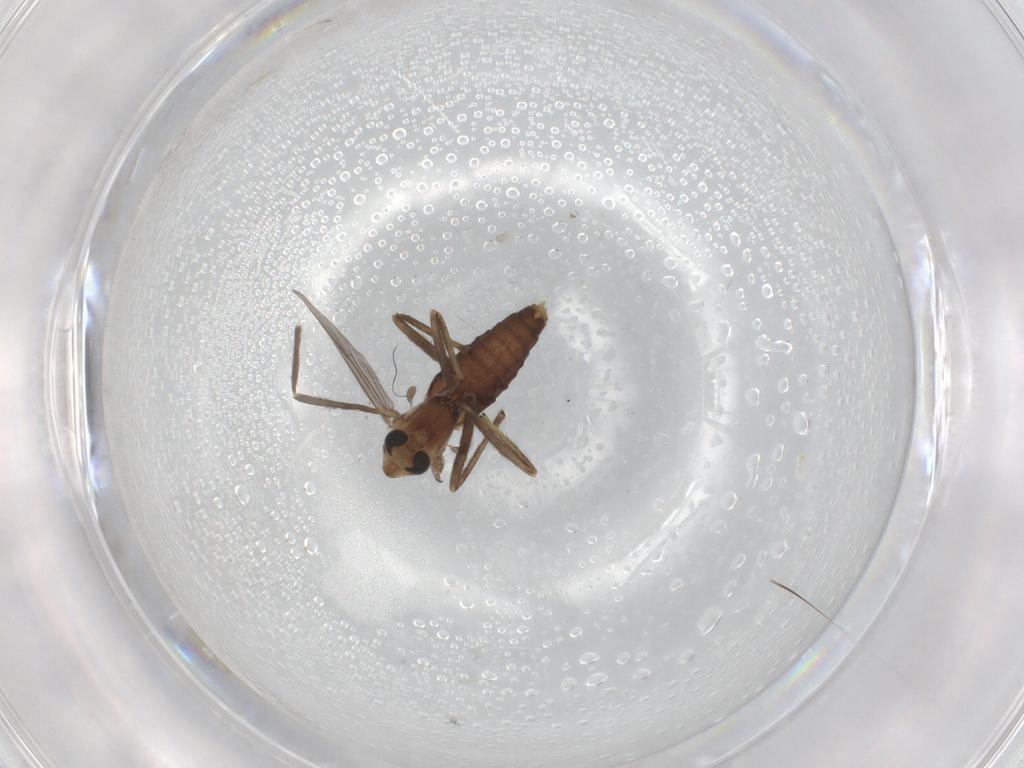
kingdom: Animalia
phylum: Arthropoda
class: Insecta
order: Diptera
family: Chironomidae
